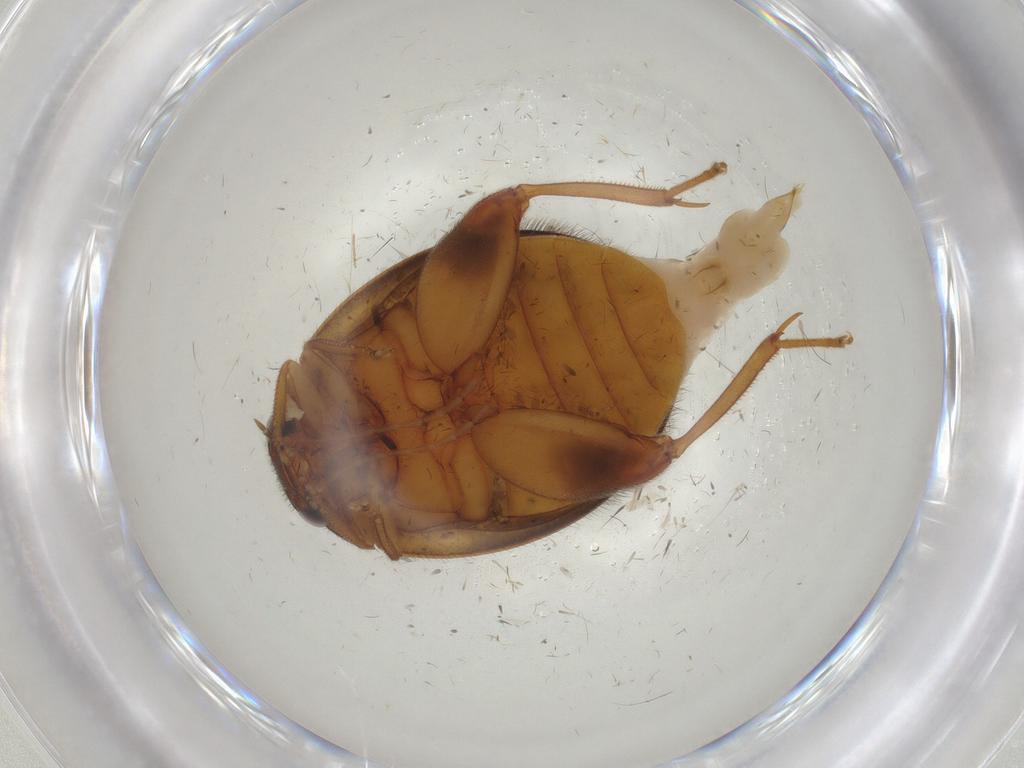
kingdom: Animalia
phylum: Arthropoda
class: Insecta
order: Coleoptera
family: Scirtidae
